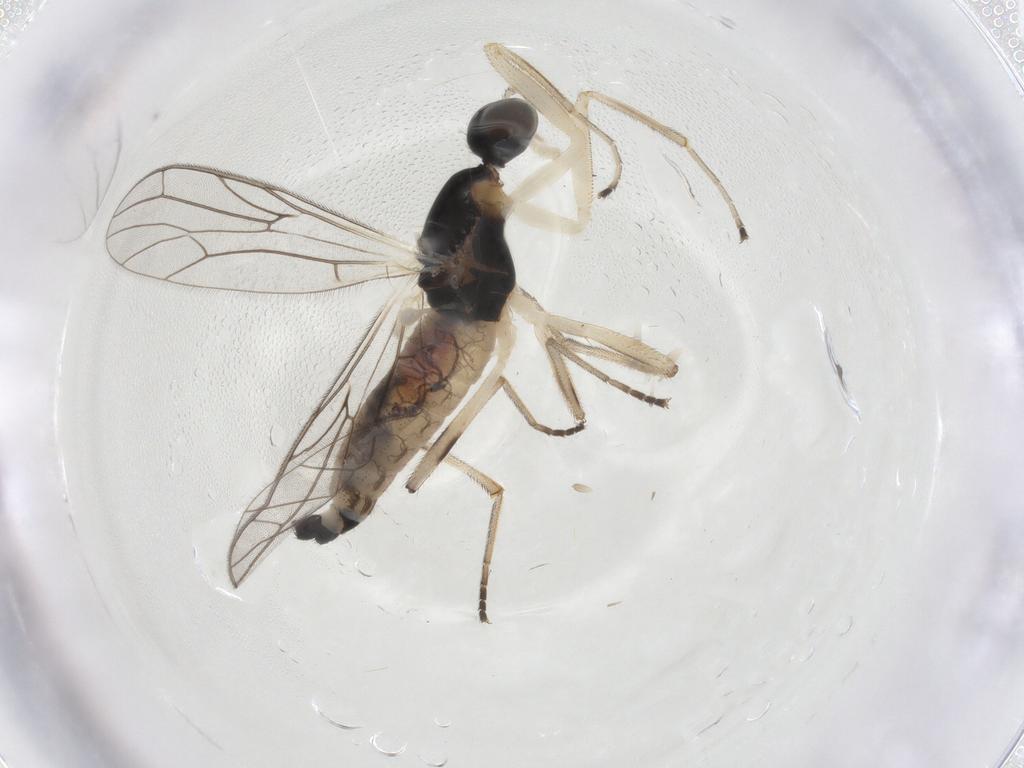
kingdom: Animalia
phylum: Arthropoda
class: Insecta
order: Diptera
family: Empididae
